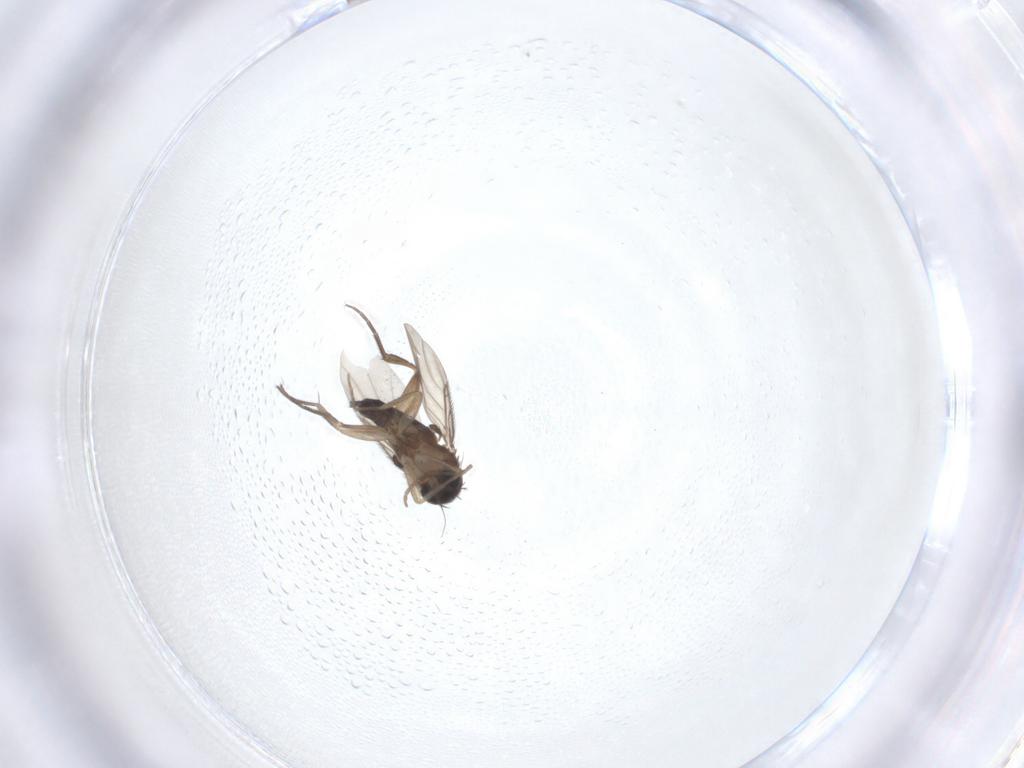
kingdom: Animalia
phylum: Arthropoda
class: Insecta
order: Diptera
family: Phoridae
